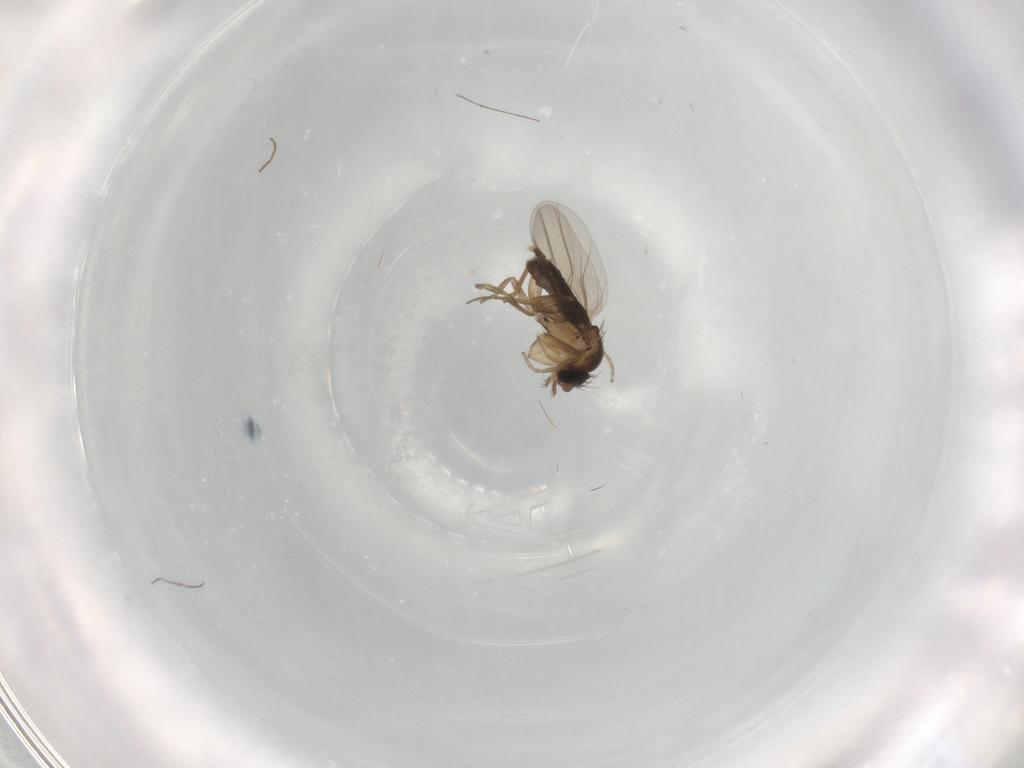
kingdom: Animalia
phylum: Arthropoda
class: Insecta
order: Diptera
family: Phoridae
